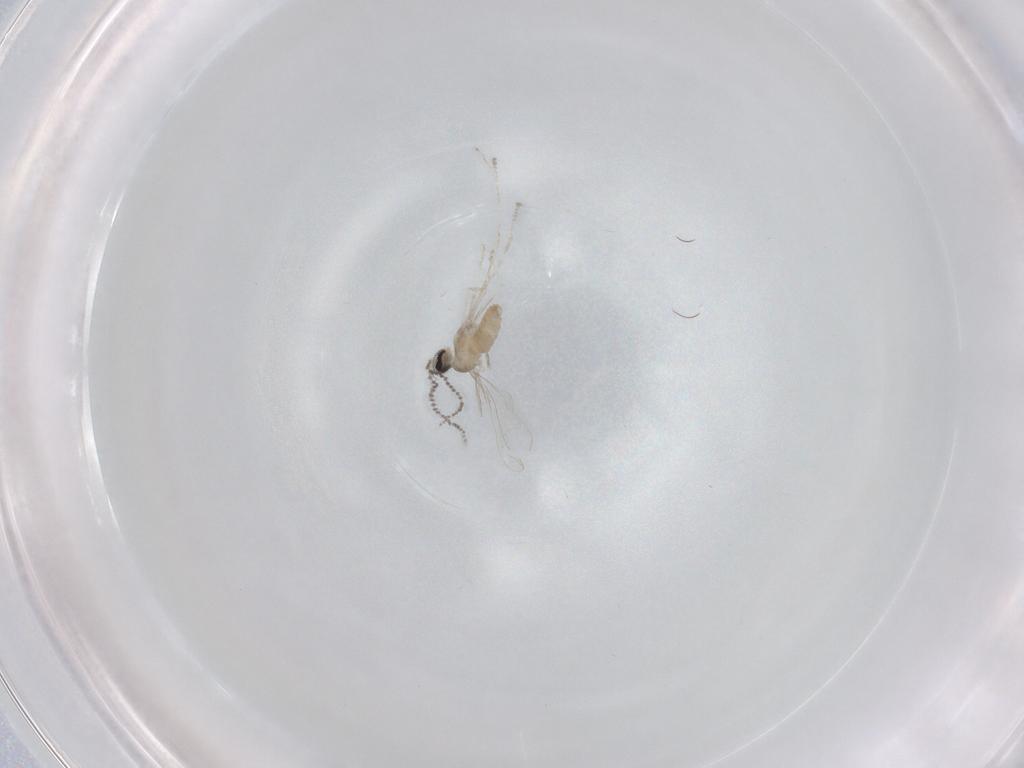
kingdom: Animalia
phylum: Arthropoda
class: Insecta
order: Diptera
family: Cecidomyiidae
